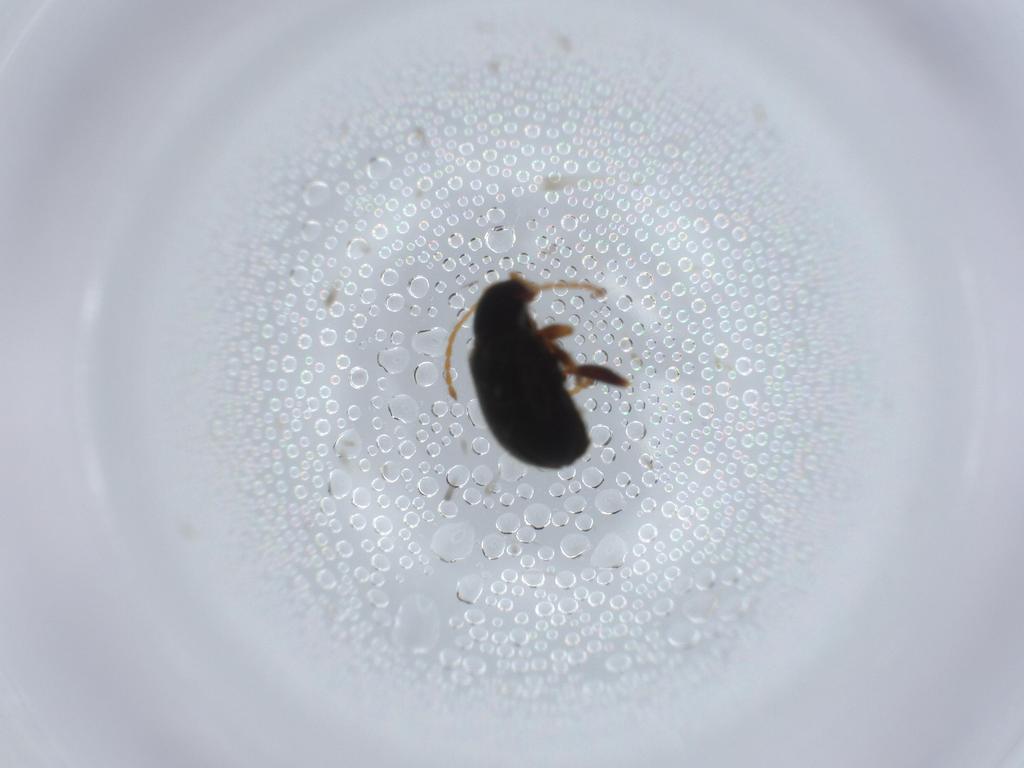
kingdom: Animalia
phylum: Arthropoda
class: Insecta
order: Coleoptera
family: Chrysomelidae
